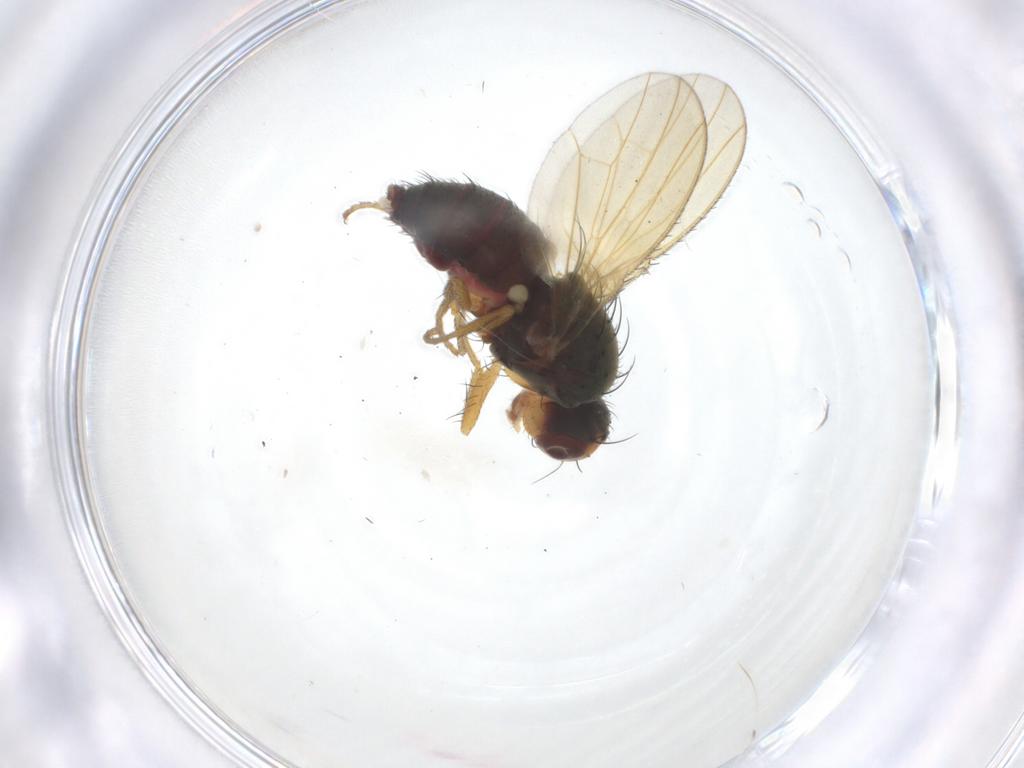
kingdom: Animalia
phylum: Arthropoda
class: Insecta
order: Diptera
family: Heleomyzidae
